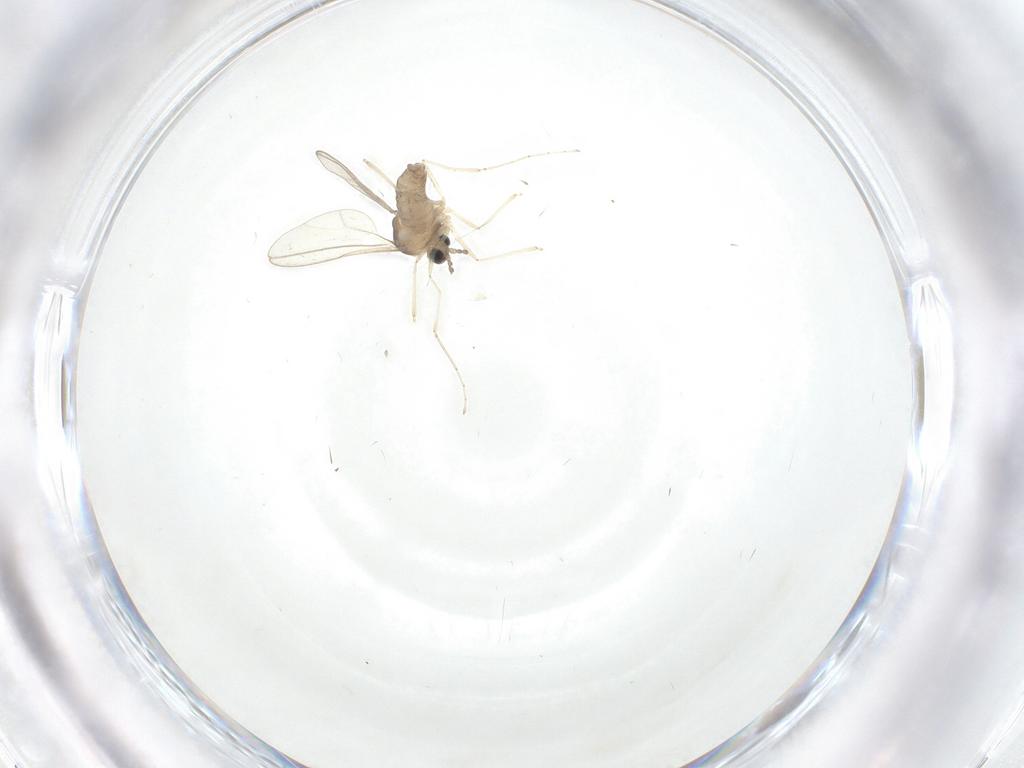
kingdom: Animalia
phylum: Arthropoda
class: Insecta
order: Diptera
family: Cecidomyiidae
